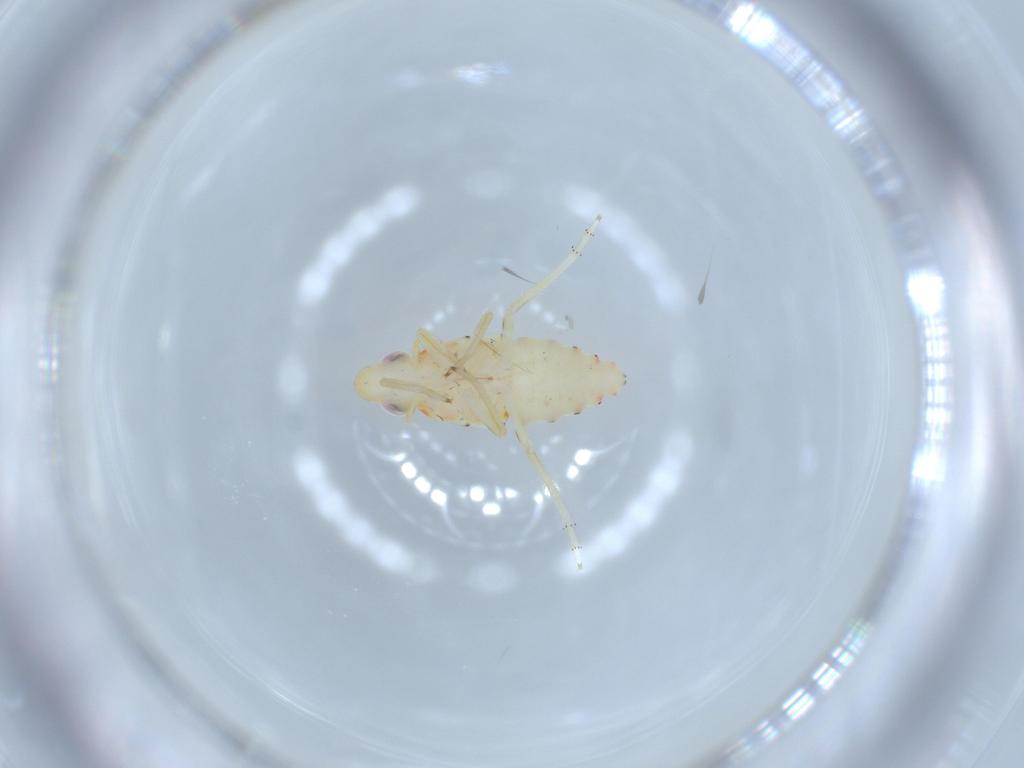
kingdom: Animalia
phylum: Arthropoda
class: Insecta
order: Hemiptera
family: Tropiduchidae
